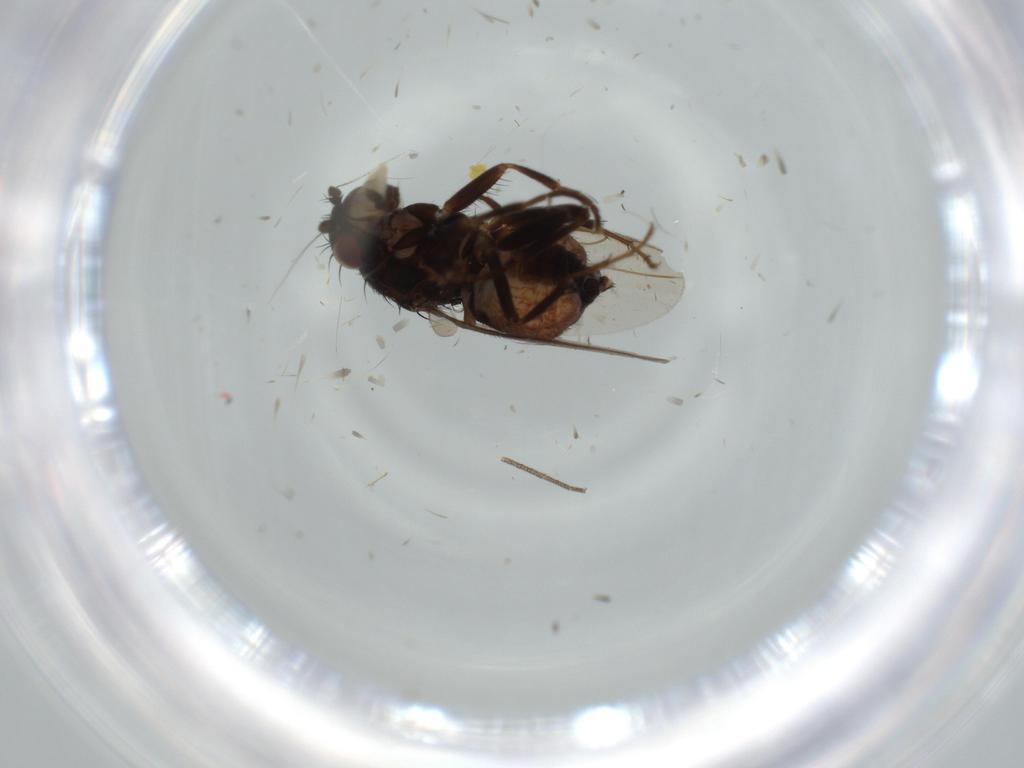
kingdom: Animalia
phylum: Arthropoda
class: Insecta
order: Diptera
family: Sphaeroceridae
